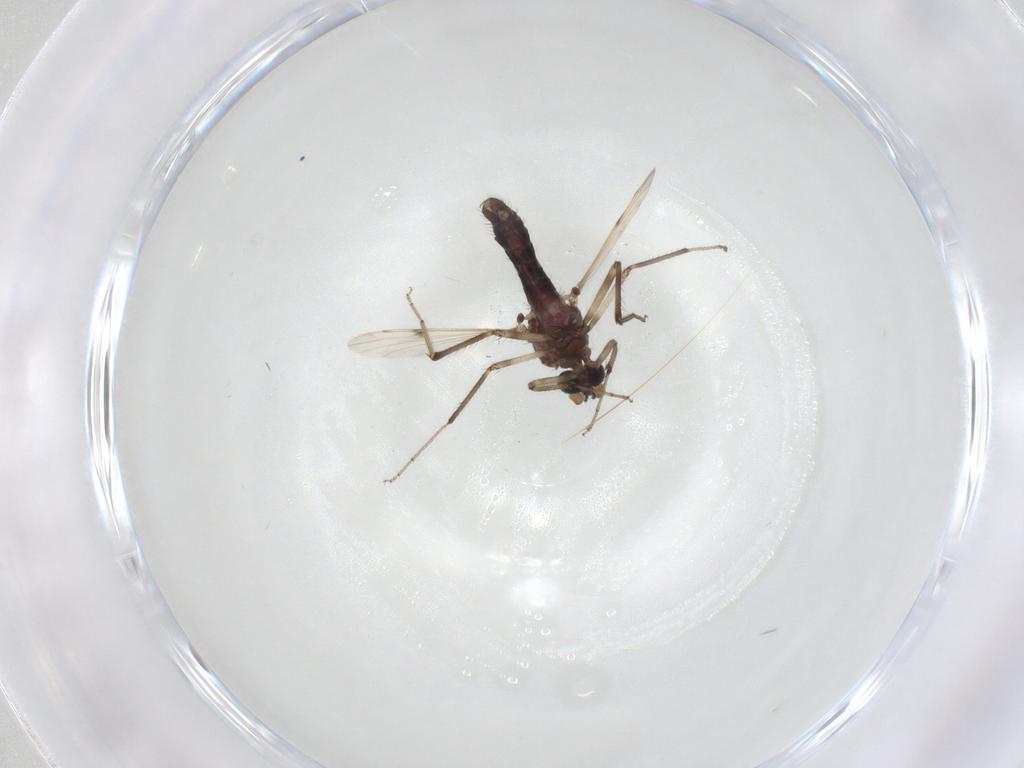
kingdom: Animalia
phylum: Arthropoda
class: Insecta
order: Diptera
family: Ceratopogonidae
